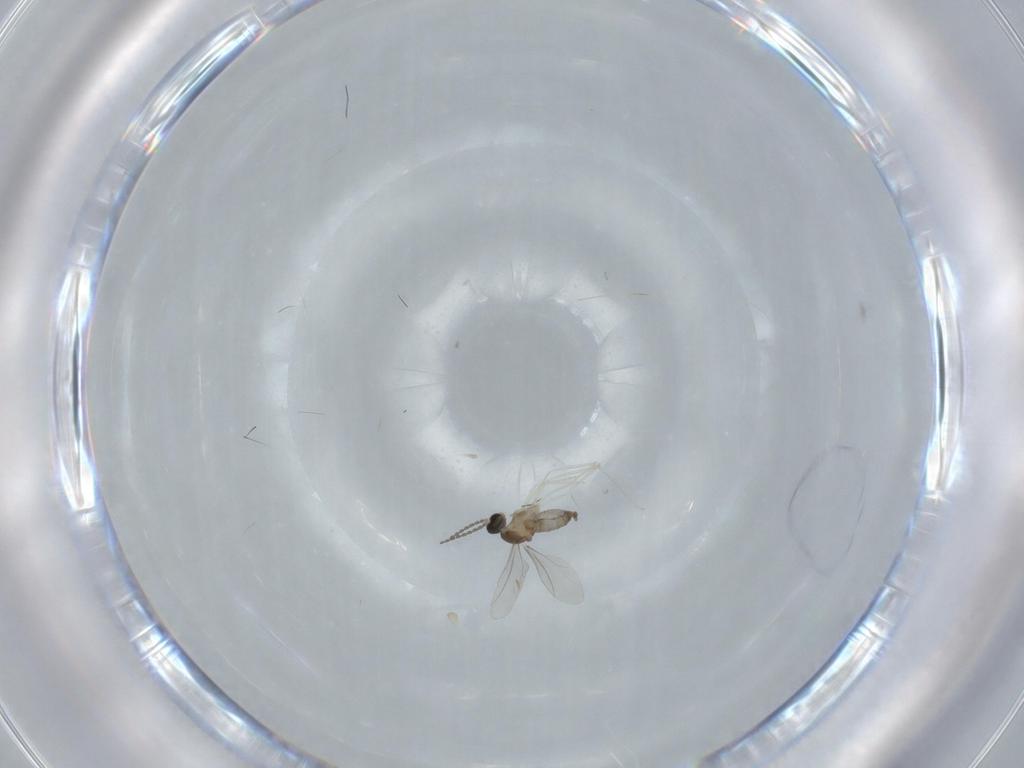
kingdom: Animalia
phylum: Arthropoda
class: Insecta
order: Diptera
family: Cecidomyiidae
